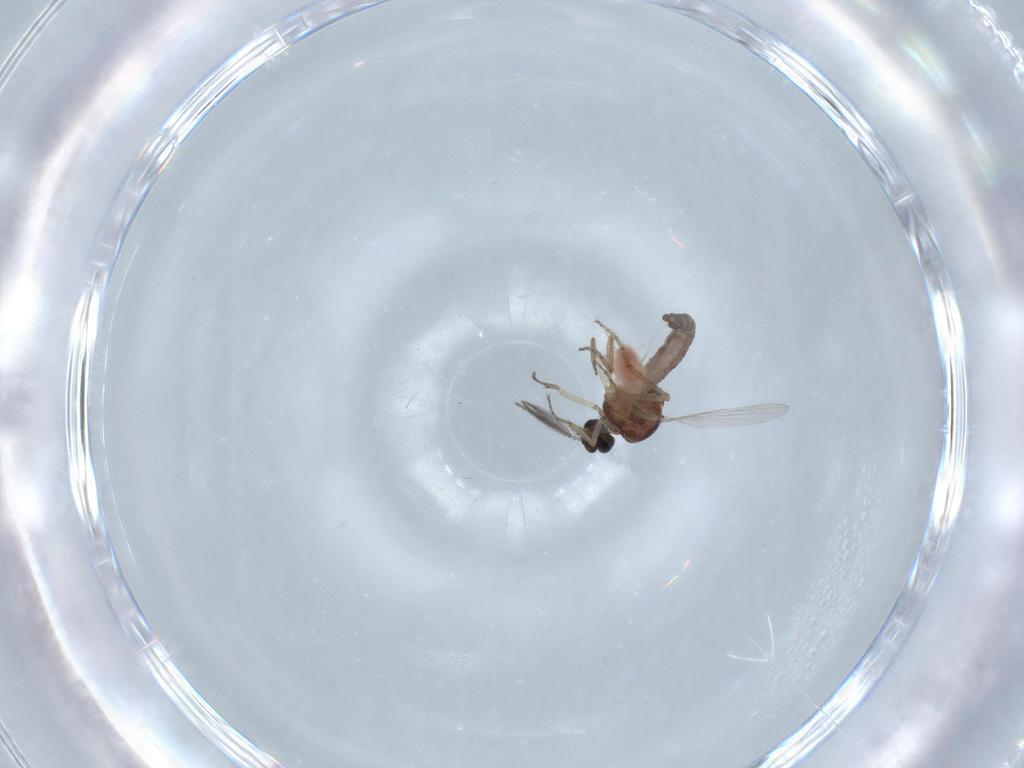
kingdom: Animalia
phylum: Arthropoda
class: Insecta
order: Diptera
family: Ceratopogonidae
